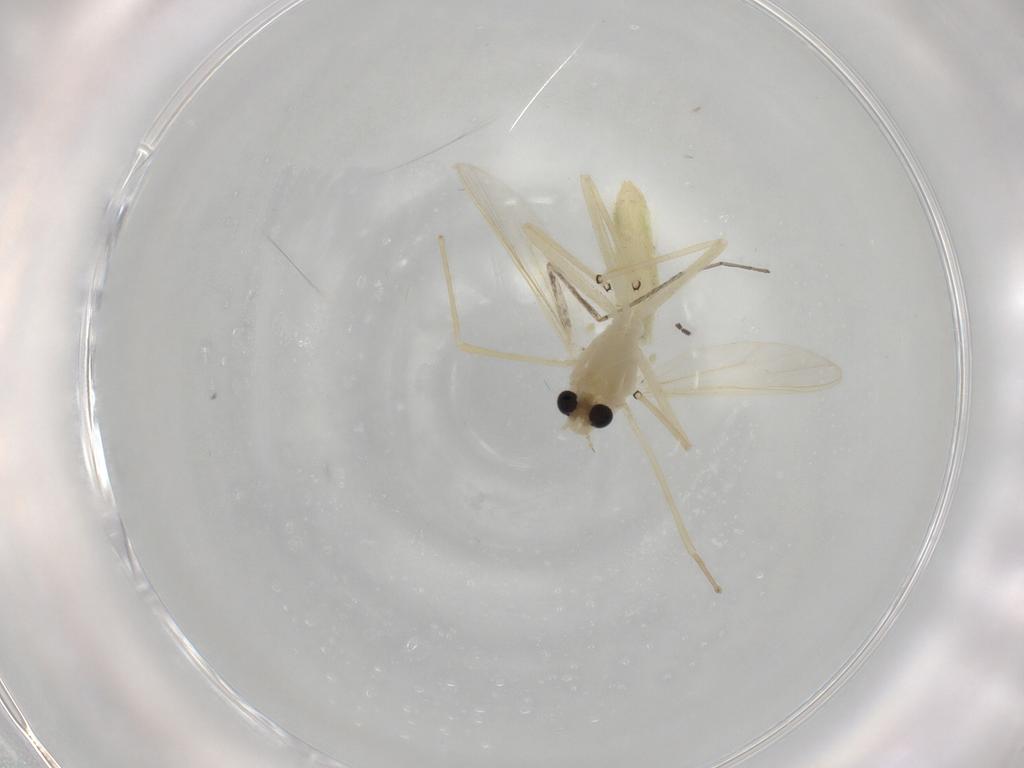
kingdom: Animalia
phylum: Arthropoda
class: Insecta
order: Diptera
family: Chironomidae
